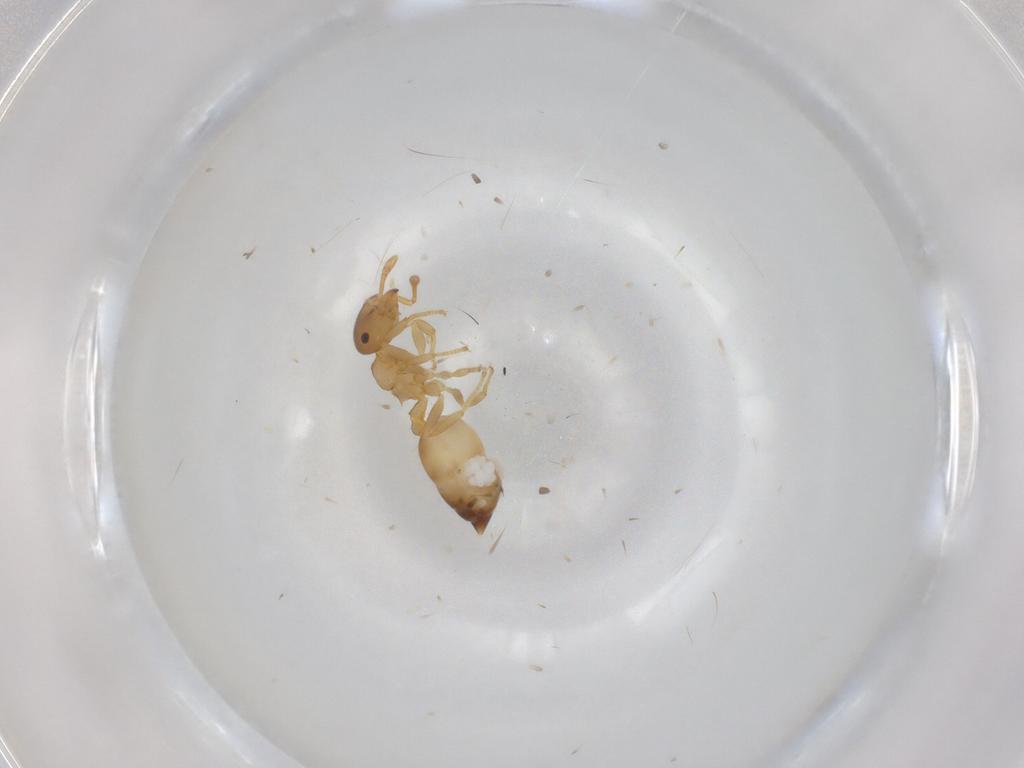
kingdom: Animalia
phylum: Arthropoda
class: Insecta
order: Hymenoptera
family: Formicidae
